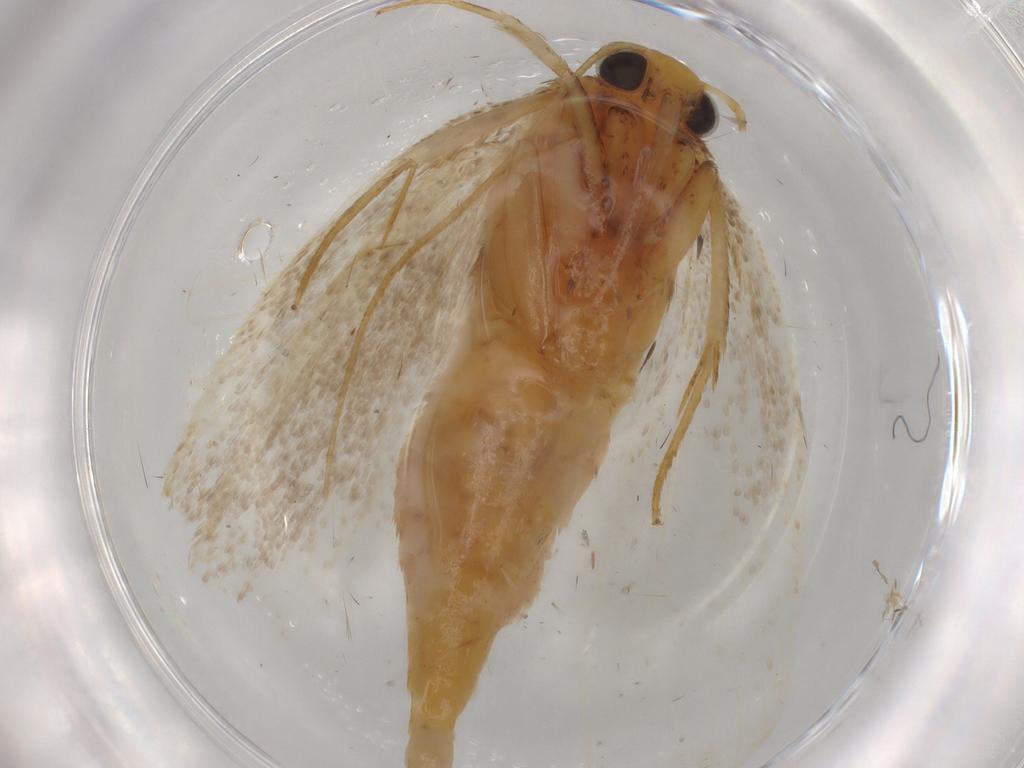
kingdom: Animalia
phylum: Arthropoda
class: Insecta
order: Lepidoptera
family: Depressariidae
